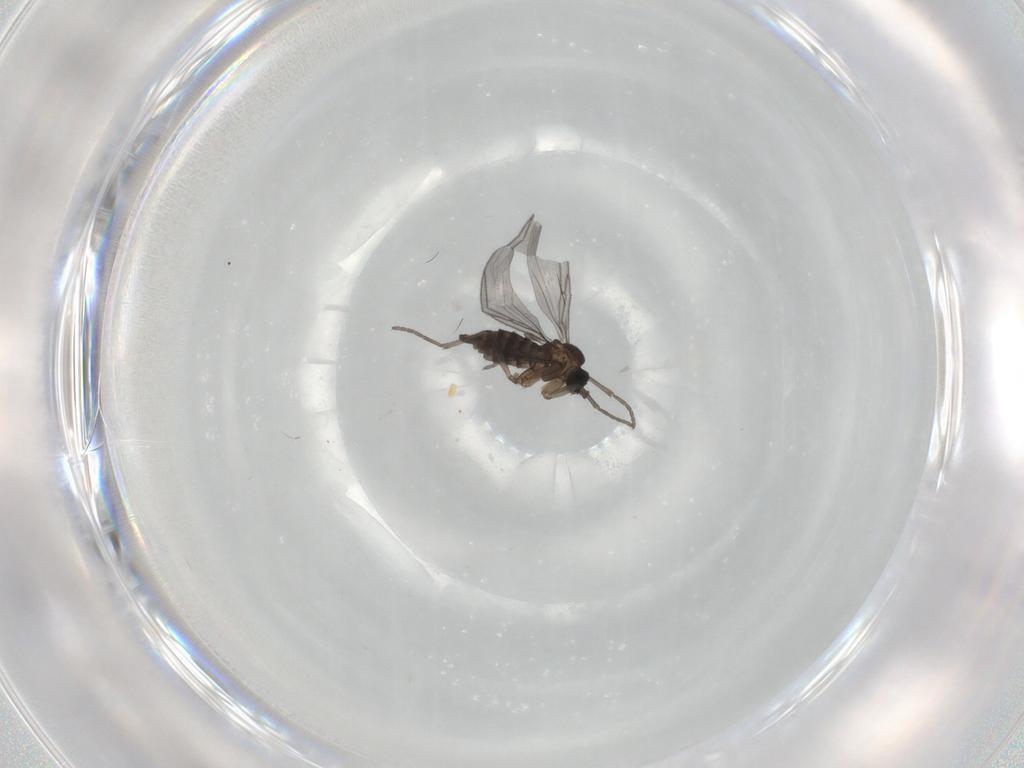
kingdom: Animalia
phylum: Arthropoda
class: Insecta
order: Diptera
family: Sciaridae
